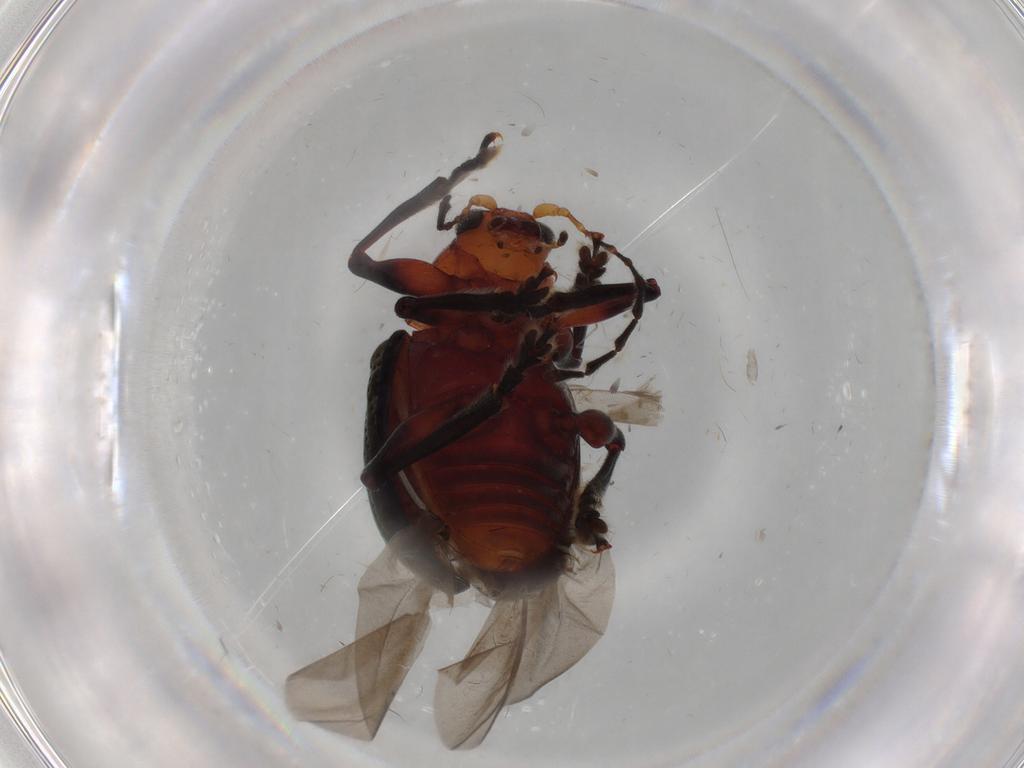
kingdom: Animalia
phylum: Arthropoda
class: Insecta
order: Coleoptera
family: Chrysomelidae
